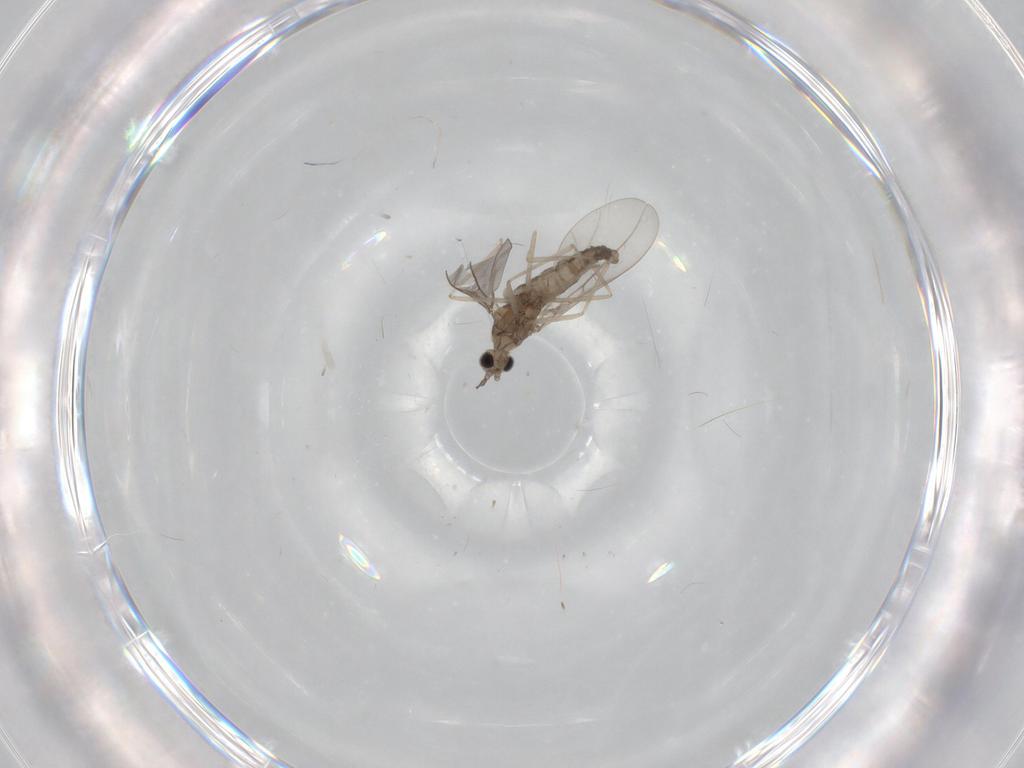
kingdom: Animalia
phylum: Arthropoda
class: Insecta
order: Diptera
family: Cecidomyiidae
